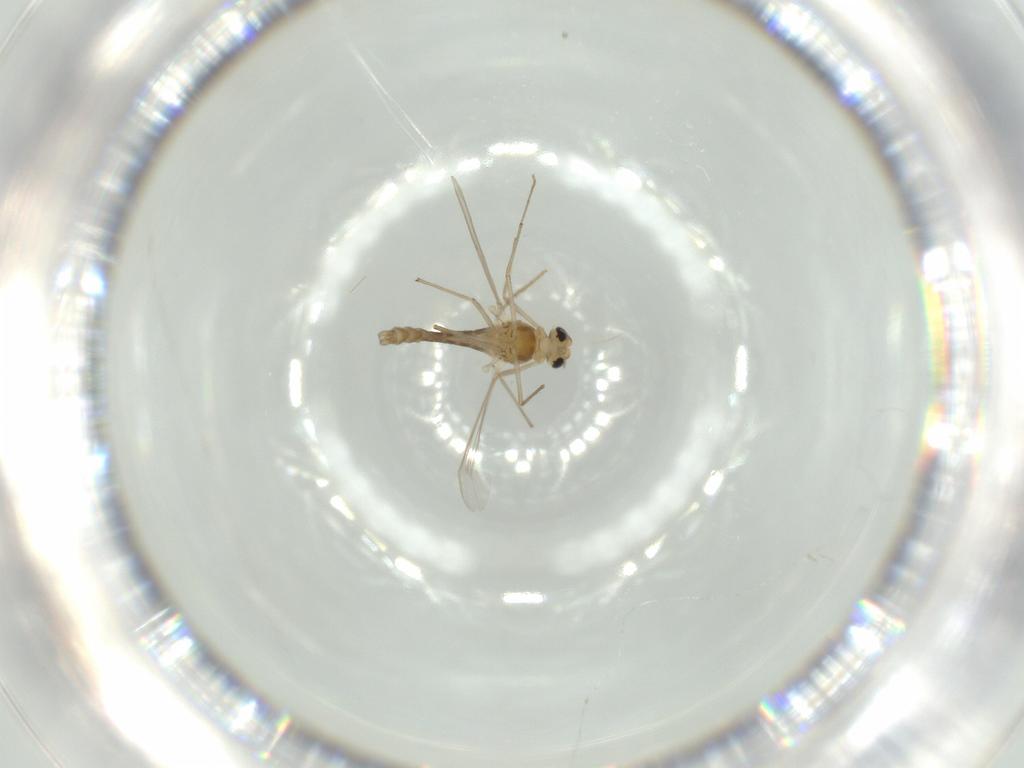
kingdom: Animalia
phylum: Arthropoda
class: Insecta
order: Diptera
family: Chironomidae
